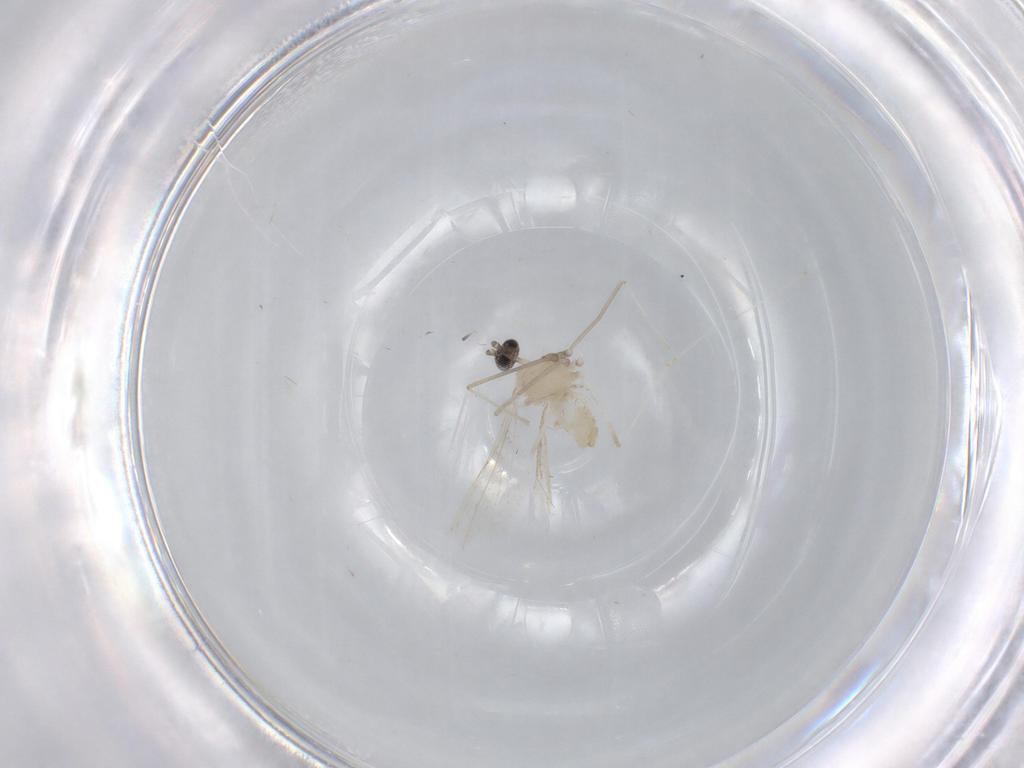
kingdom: Animalia
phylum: Arthropoda
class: Insecta
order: Diptera
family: Cecidomyiidae
